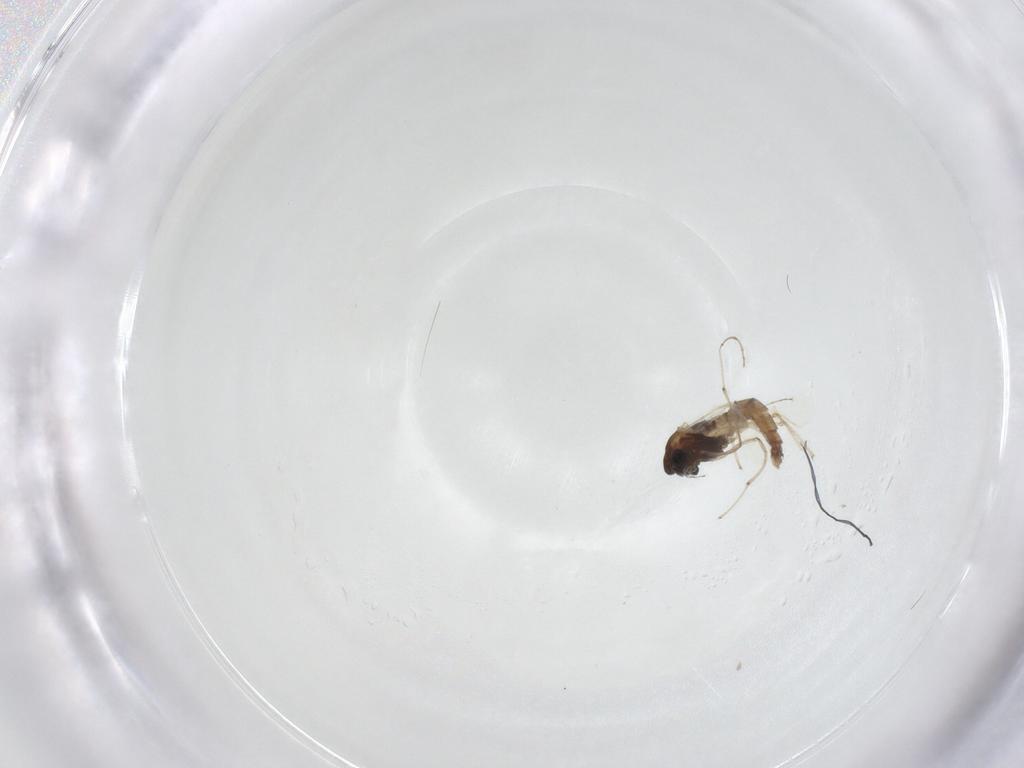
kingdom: Animalia
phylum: Arthropoda
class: Insecta
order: Diptera
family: Chironomidae
